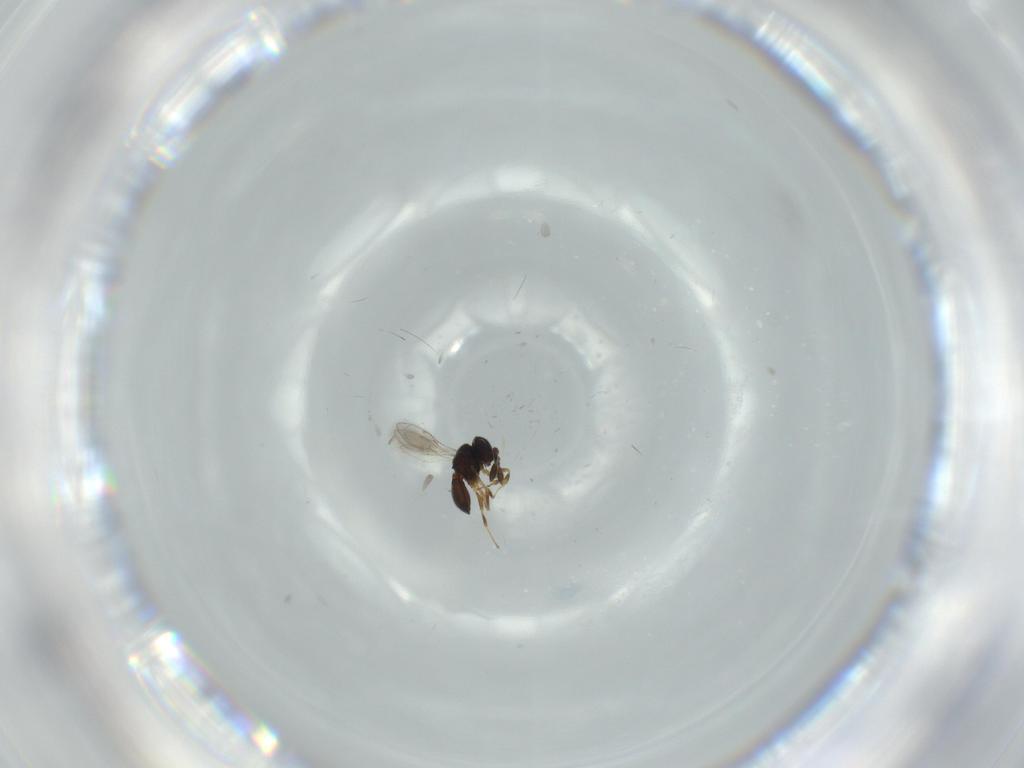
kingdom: Animalia
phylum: Arthropoda
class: Insecta
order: Hymenoptera
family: Scelionidae
